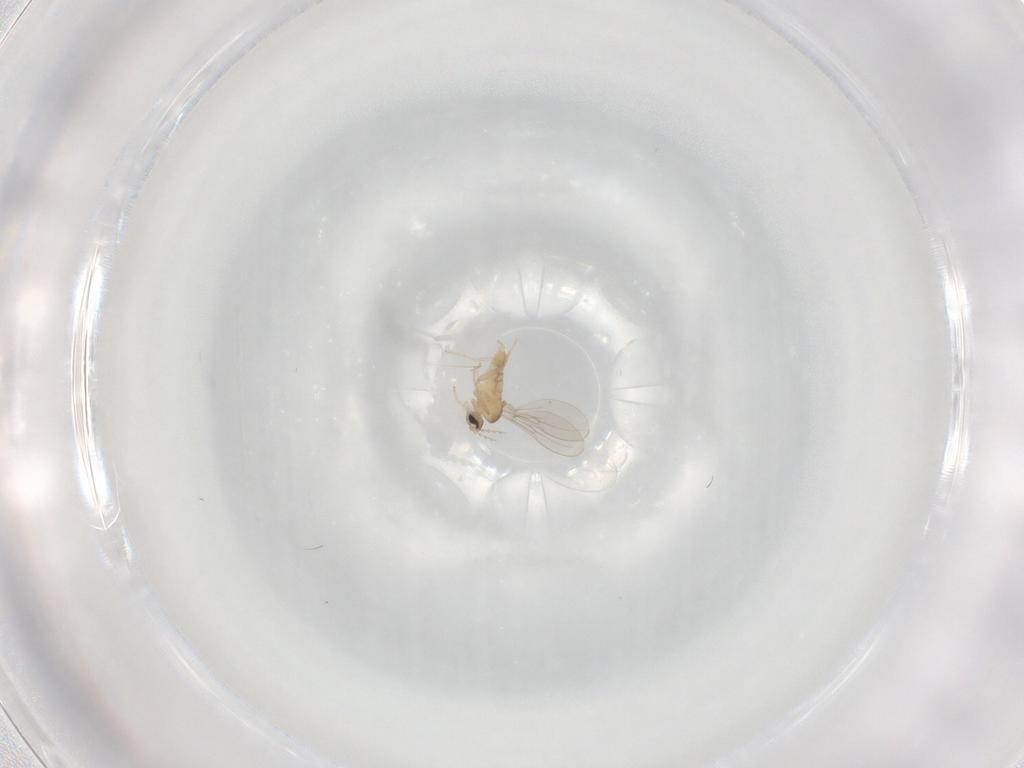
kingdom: Animalia
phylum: Arthropoda
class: Insecta
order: Diptera
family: Cecidomyiidae
